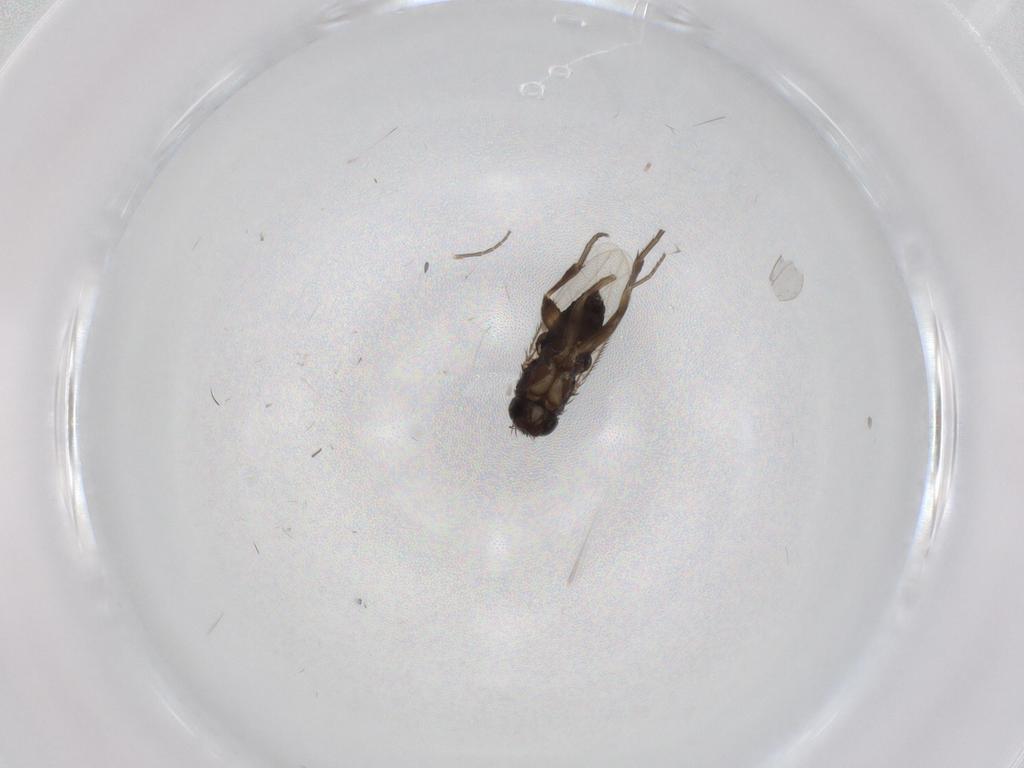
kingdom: Animalia
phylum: Arthropoda
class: Insecta
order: Diptera
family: Phoridae
